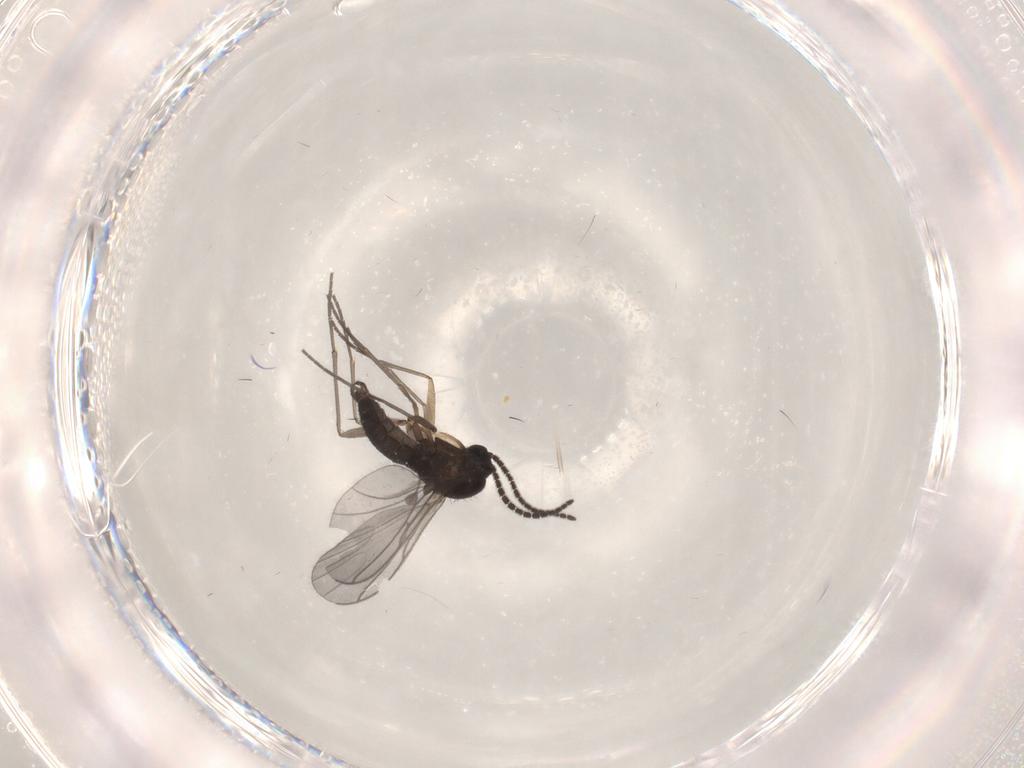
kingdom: Animalia
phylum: Arthropoda
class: Insecta
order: Diptera
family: Sciaridae
